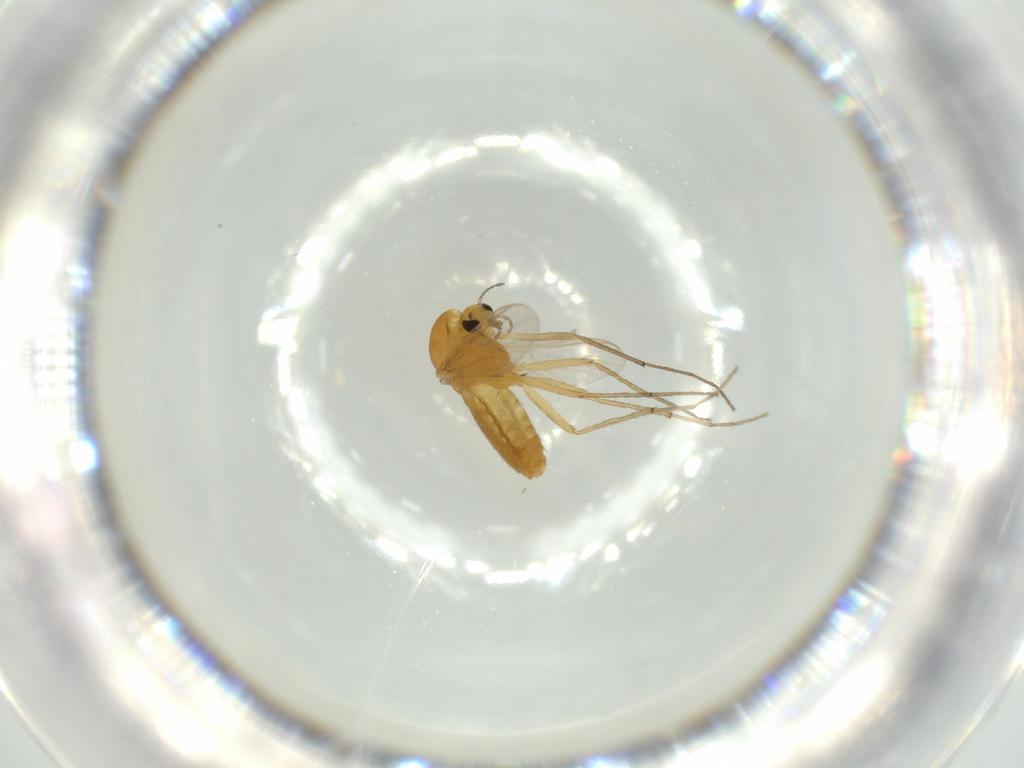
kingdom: Animalia
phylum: Arthropoda
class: Insecta
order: Diptera
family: Chironomidae
